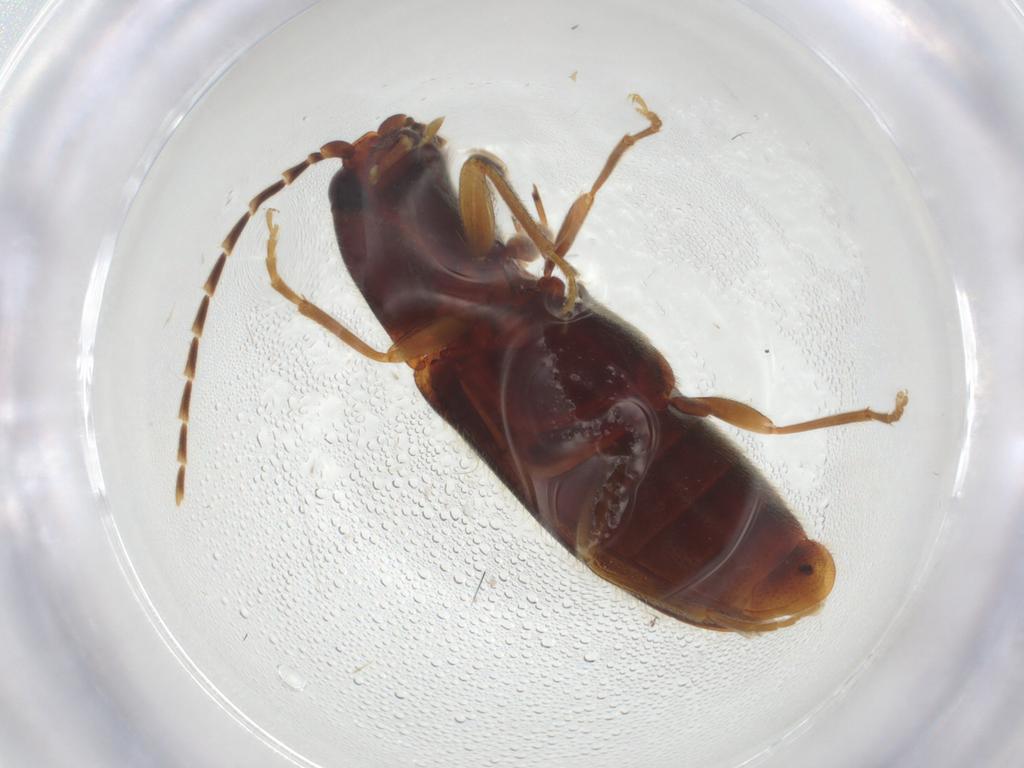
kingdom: Animalia
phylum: Arthropoda
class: Insecta
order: Coleoptera
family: Elateridae
